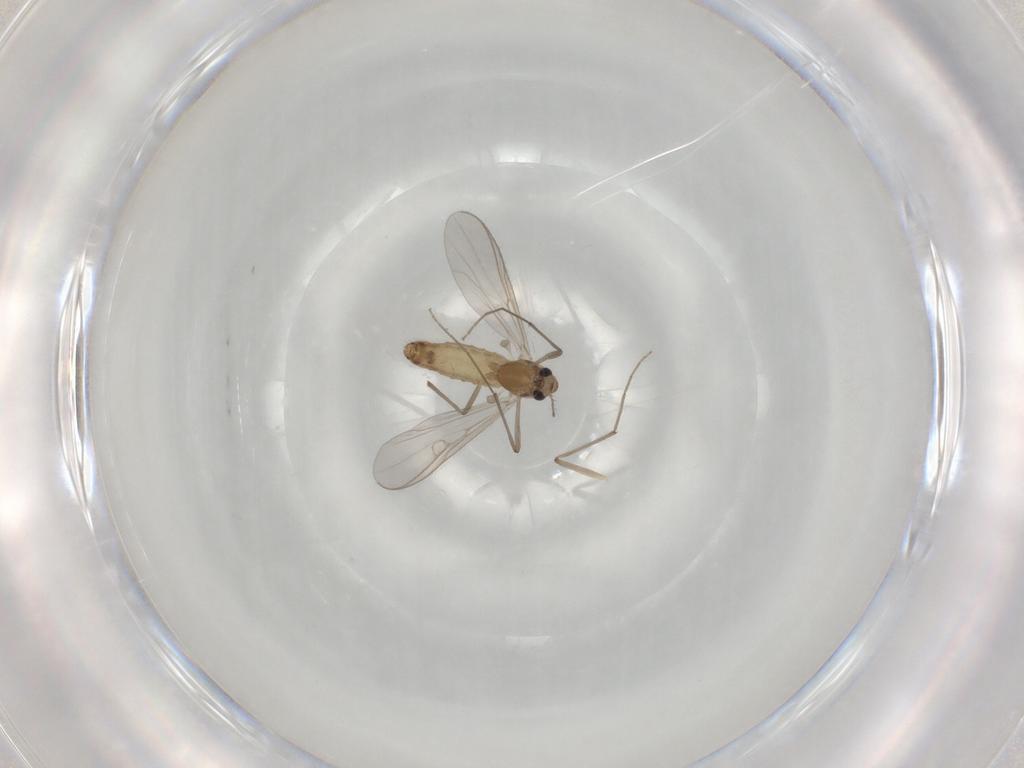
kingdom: Animalia
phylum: Arthropoda
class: Insecta
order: Diptera
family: Chironomidae
